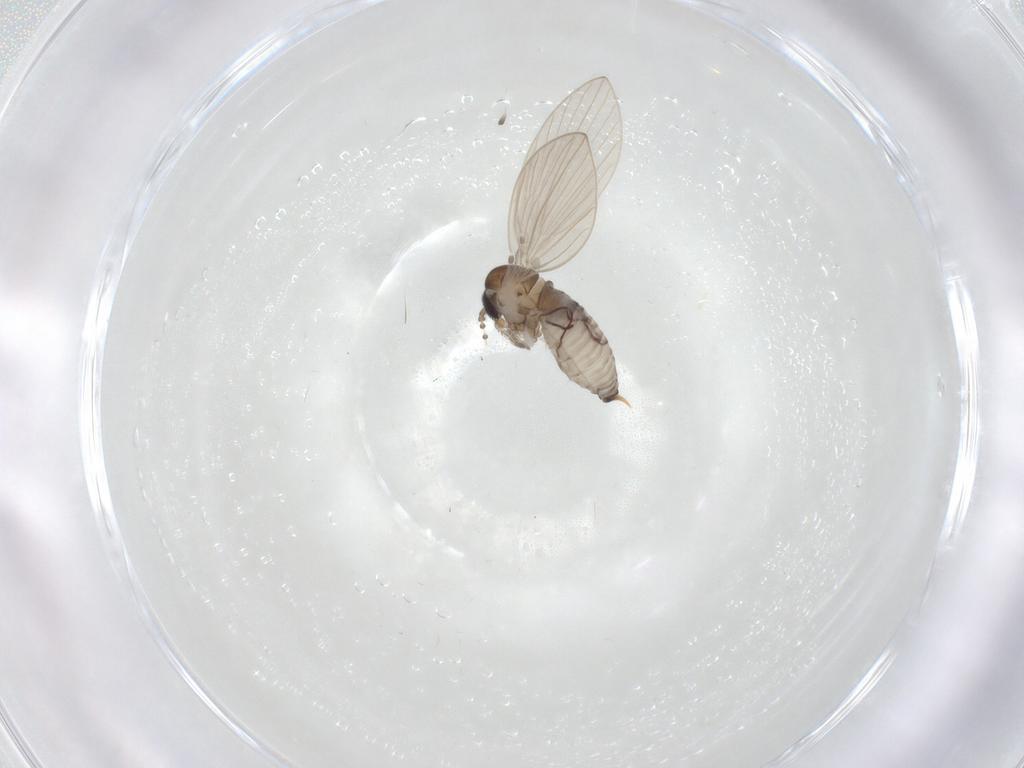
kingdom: Animalia
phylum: Arthropoda
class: Insecta
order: Diptera
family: Psychodidae
